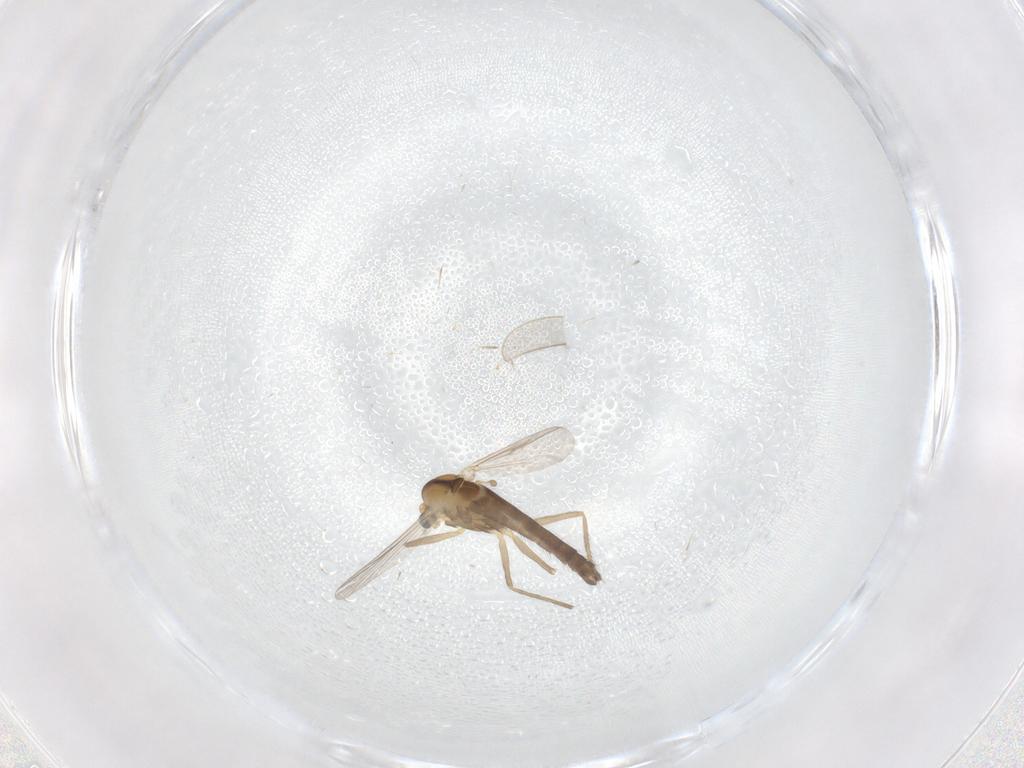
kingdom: Animalia
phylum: Arthropoda
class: Insecta
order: Diptera
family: Chironomidae
